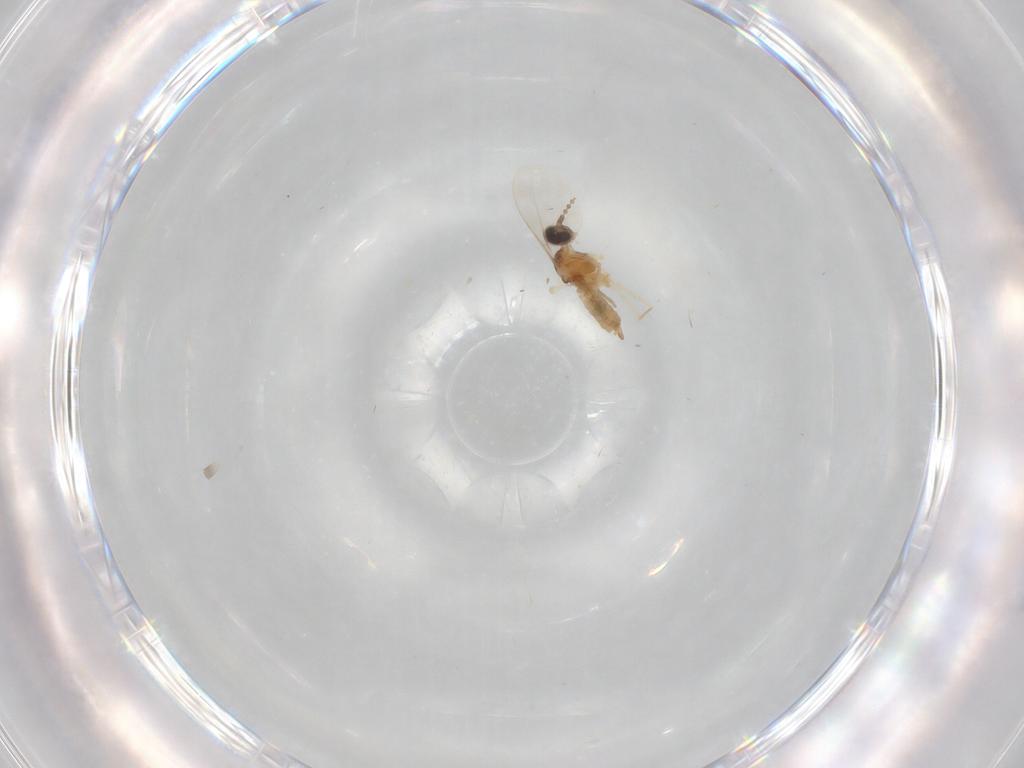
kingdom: Animalia
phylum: Arthropoda
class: Insecta
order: Diptera
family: Cecidomyiidae
